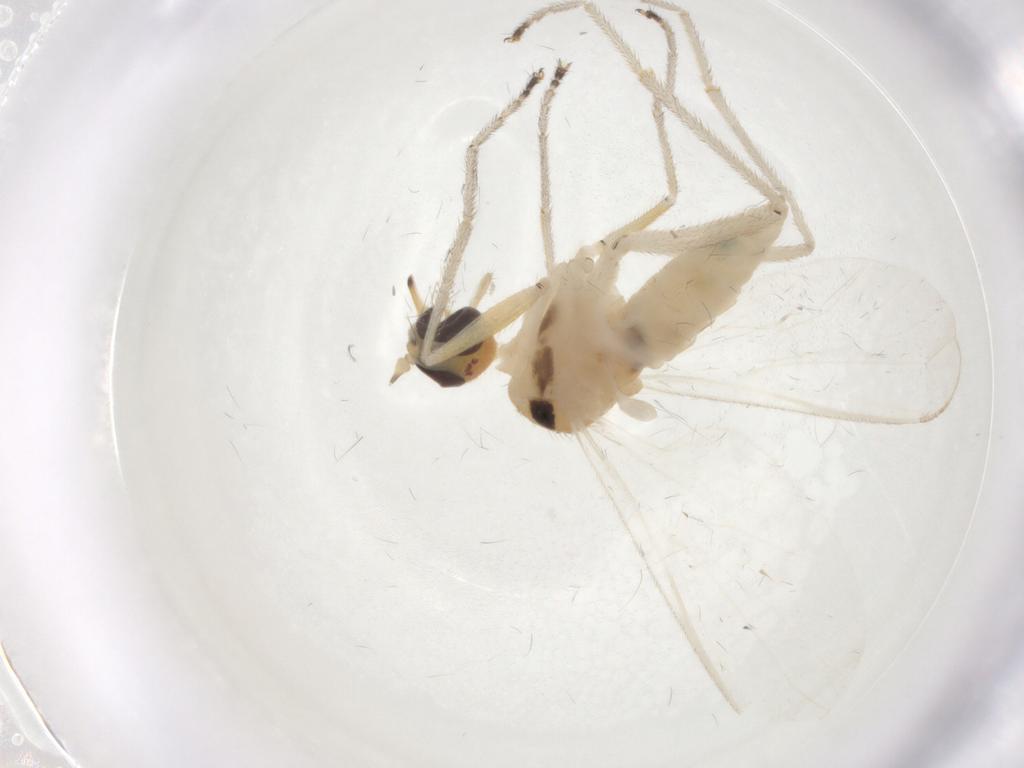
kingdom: Animalia
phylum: Arthropoda
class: Insecta
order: Diptera
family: Empididae
